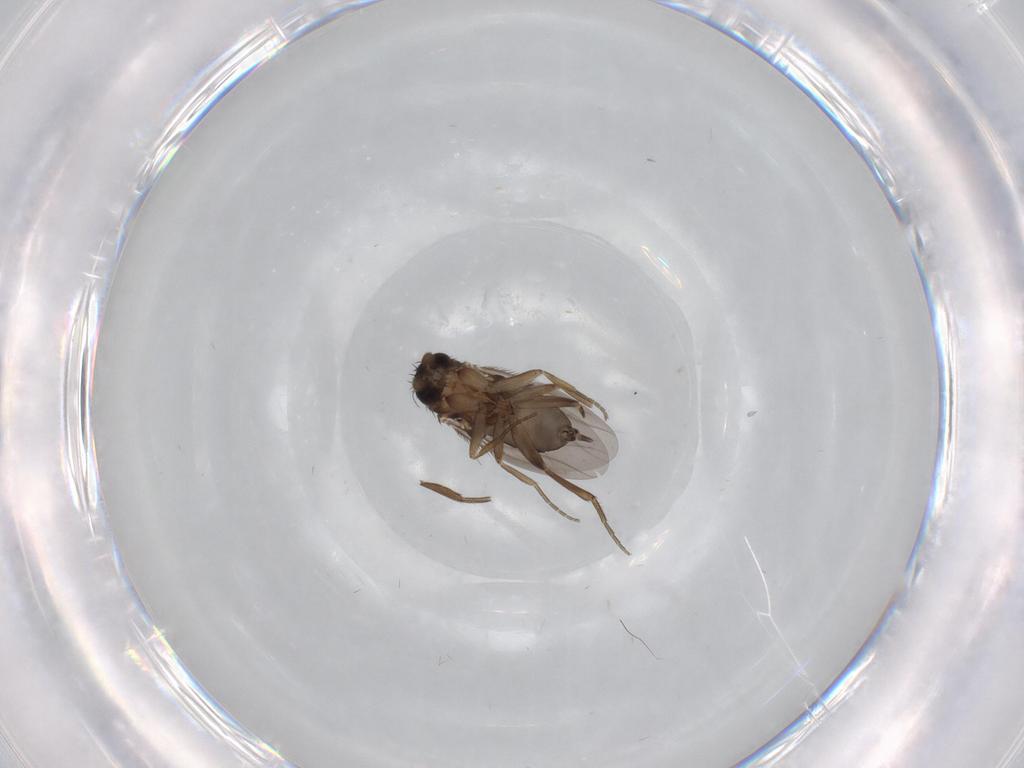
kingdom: Animalia
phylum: Arthropoda
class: Insecta
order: Diptera
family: Phoridae
